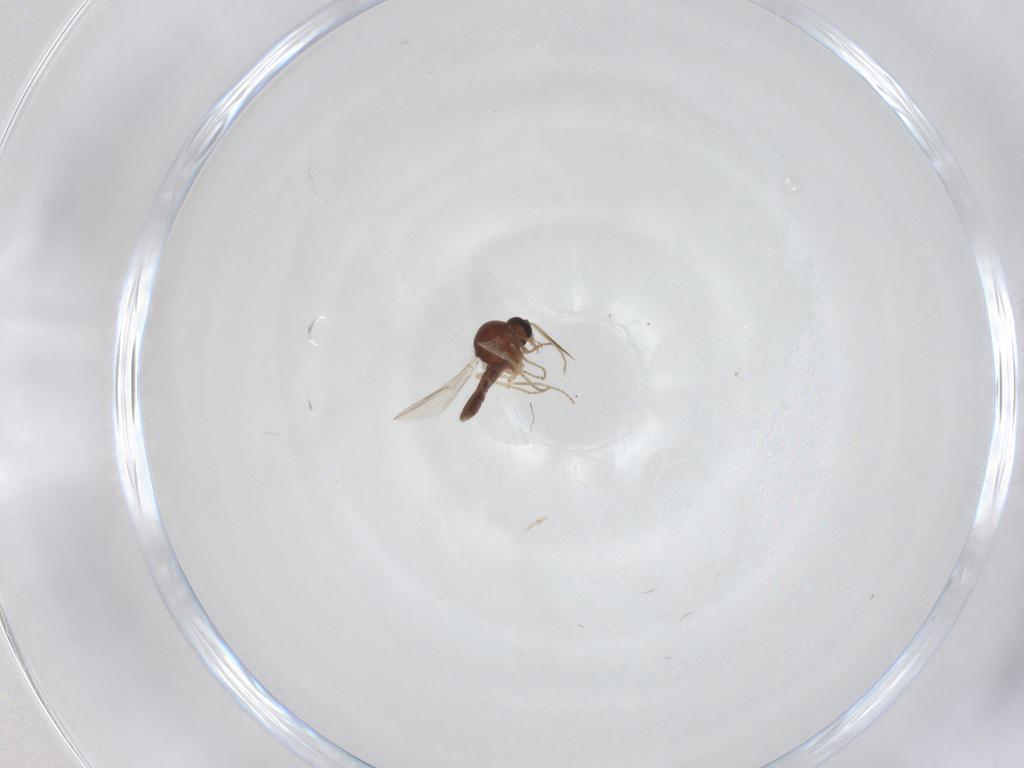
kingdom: Animalia
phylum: Arthropoda
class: Insecta
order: Diptera
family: Ceratopogonidae
